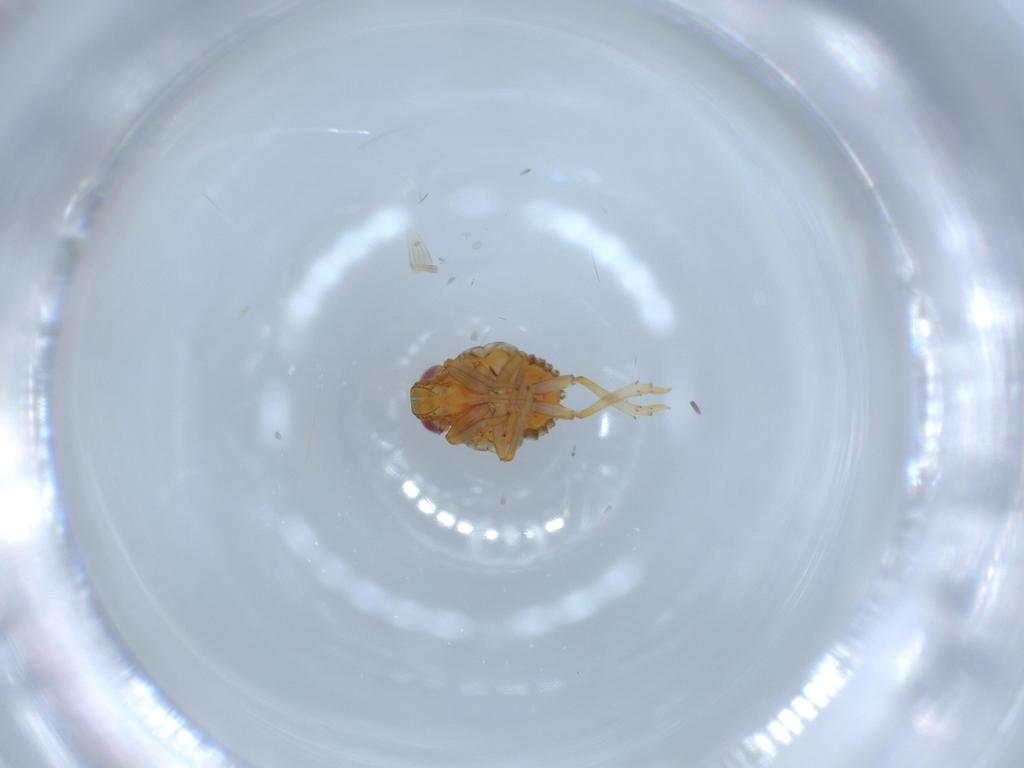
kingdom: Animalia
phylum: Arthropoda
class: Insecta
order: Hemiptera
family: Issidae
